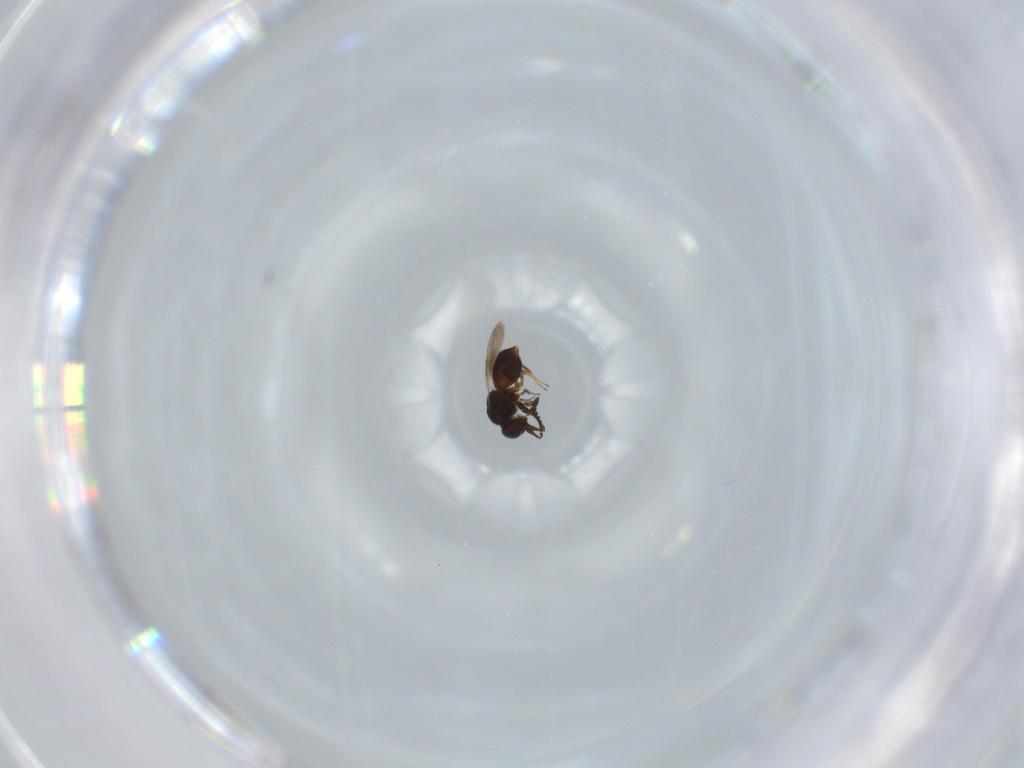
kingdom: Animalia
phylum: Arthropoda
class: Insecta
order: Hymenoptera
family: Ceraphronidae
